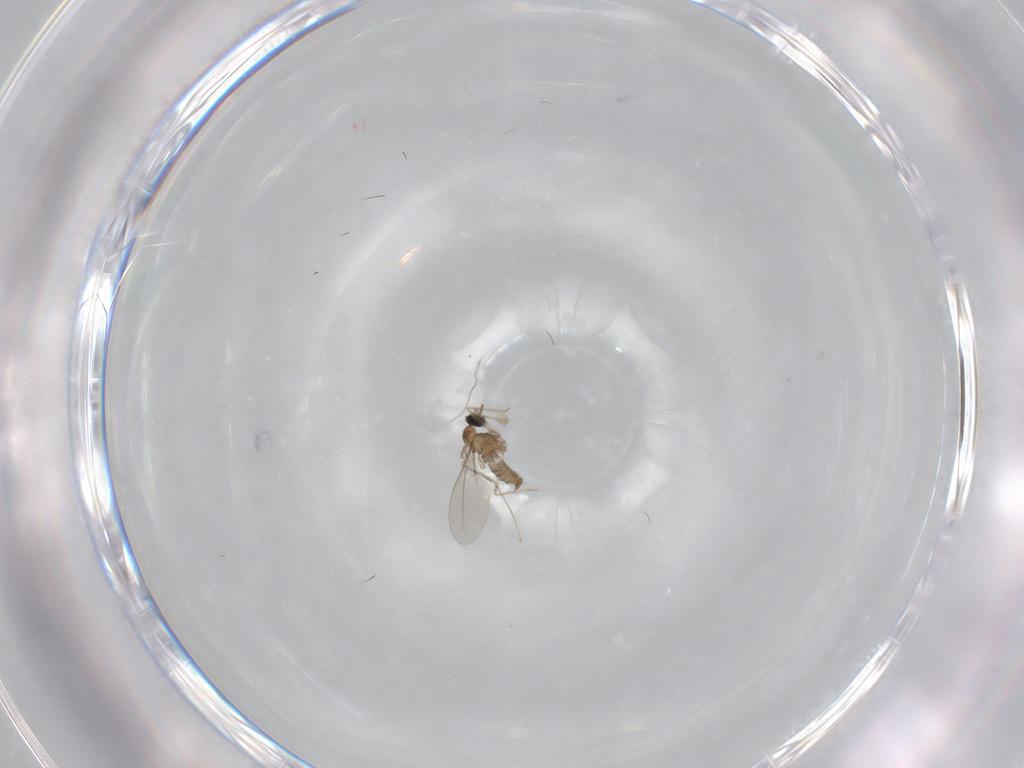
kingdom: Animalia
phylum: Arthropoda
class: Insecta
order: Diptera
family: Cecidomyiidae
